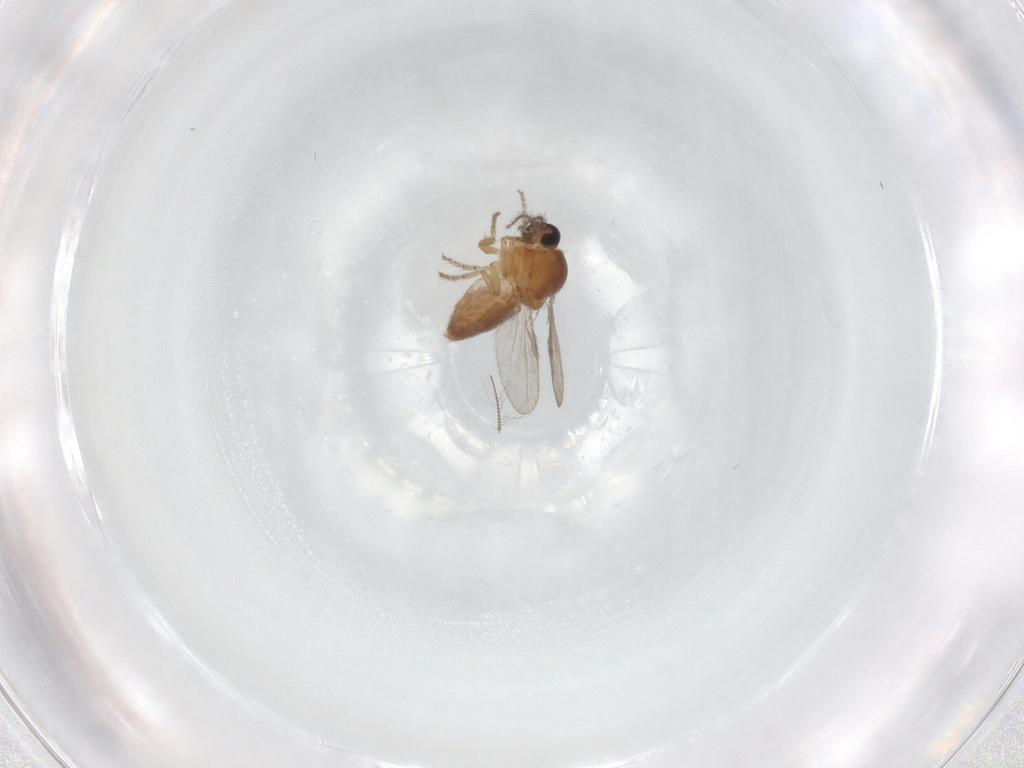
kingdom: Animalia
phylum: Arthropoda
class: Insecta
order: Diptera
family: Ceratopogonidae
